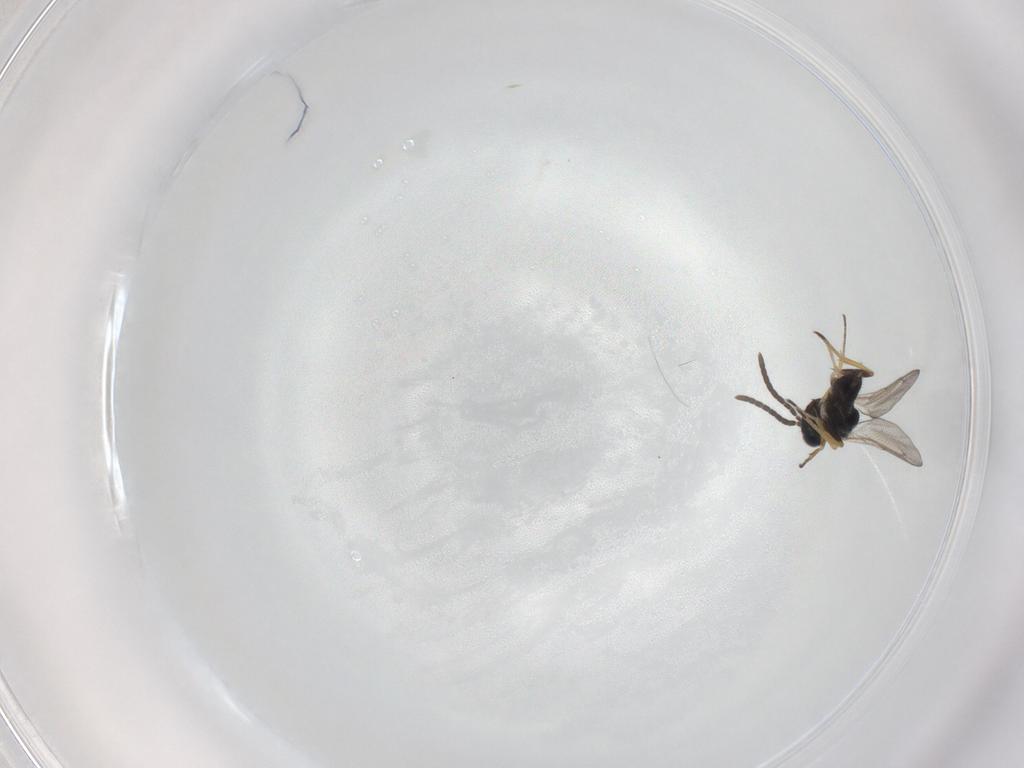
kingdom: Animalia
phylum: Arthropoda
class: Insecta
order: Hymenoptera
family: Eupelmidae
